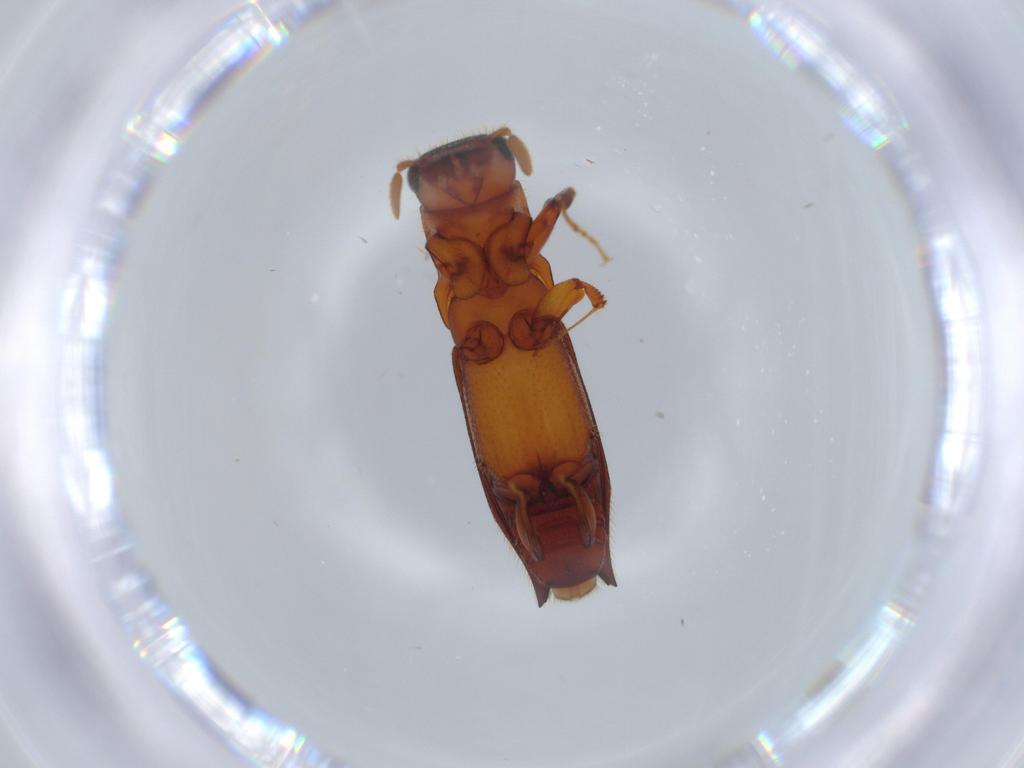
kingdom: Animalia
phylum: Arthropoda
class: Insecta
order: Coleoptera
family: Curculionidae
